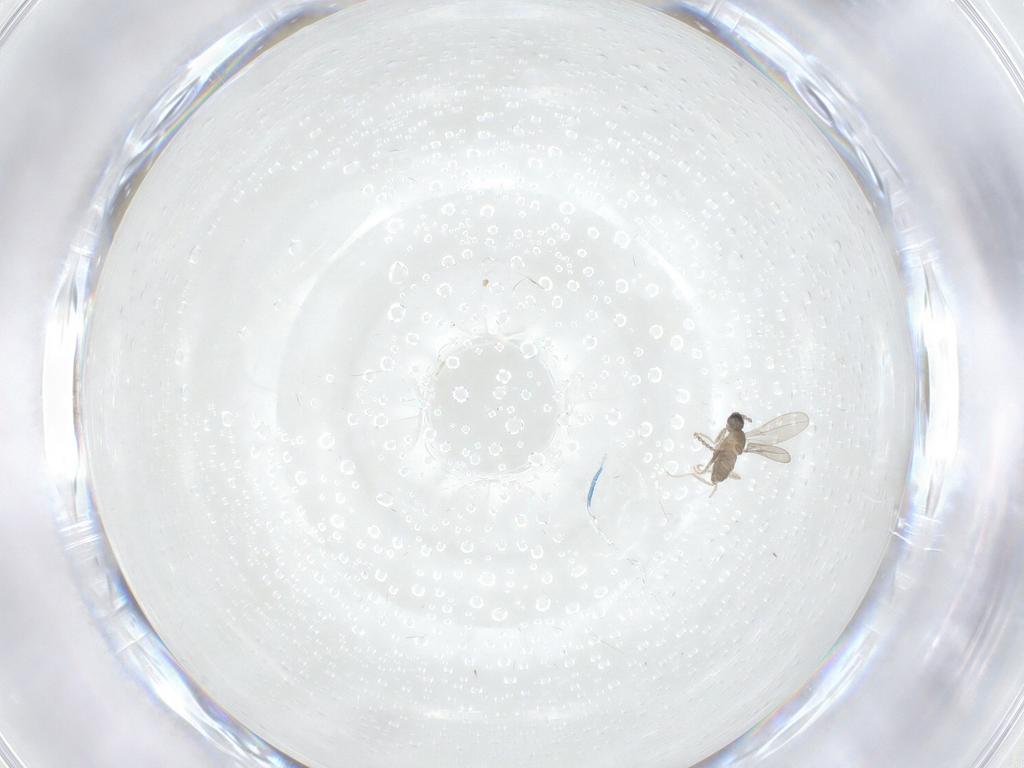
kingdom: Animalia
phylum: Arthropoda
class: Insecta
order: Diptera
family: Cecidomyiidae
